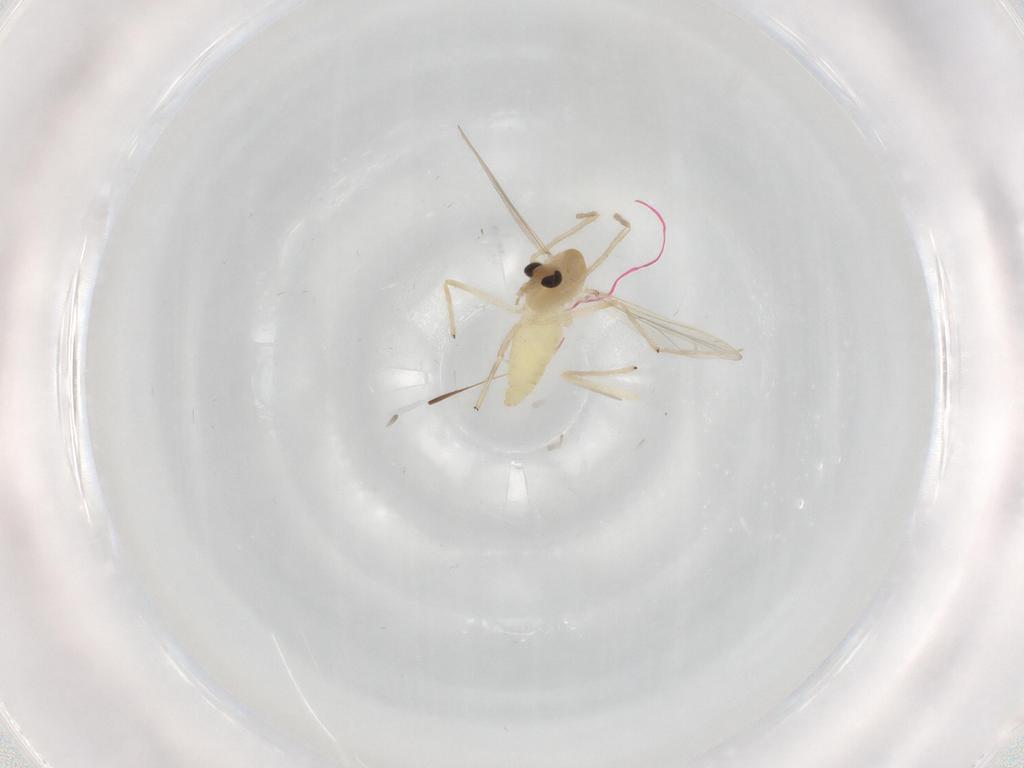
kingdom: Animalia
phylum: Arthropoda
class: Insecta
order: Diptera
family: Chironomidae
